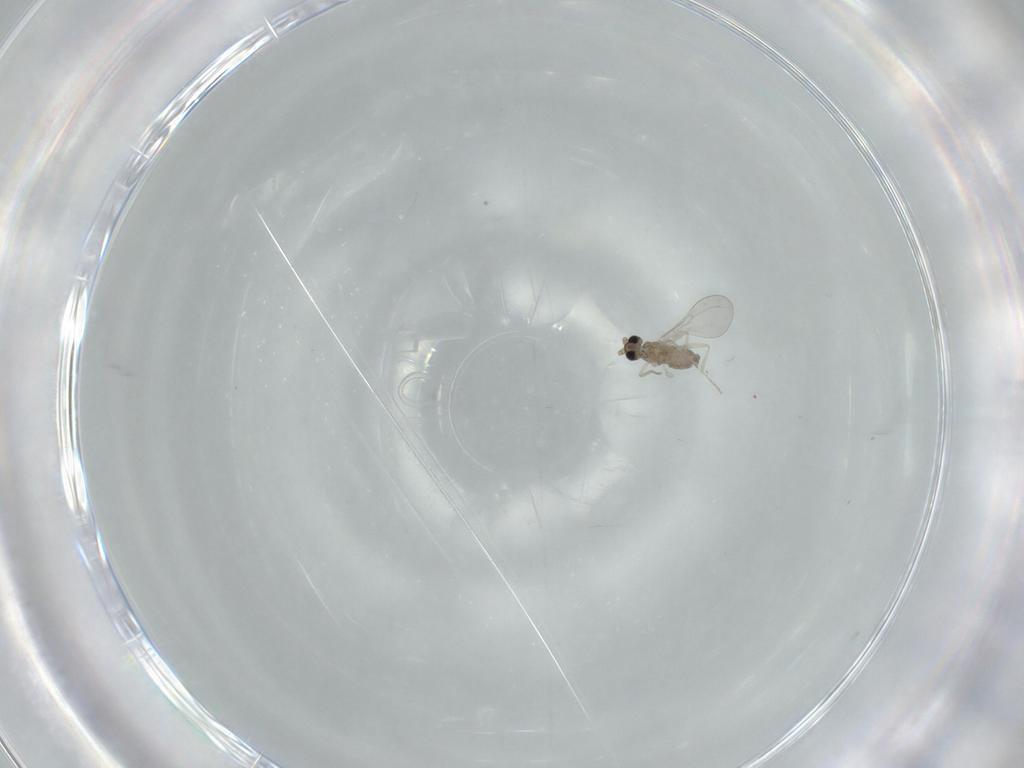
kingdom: Animalia
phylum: Arthropoda
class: Insecta
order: Diptera
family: Cecidomyiidae
